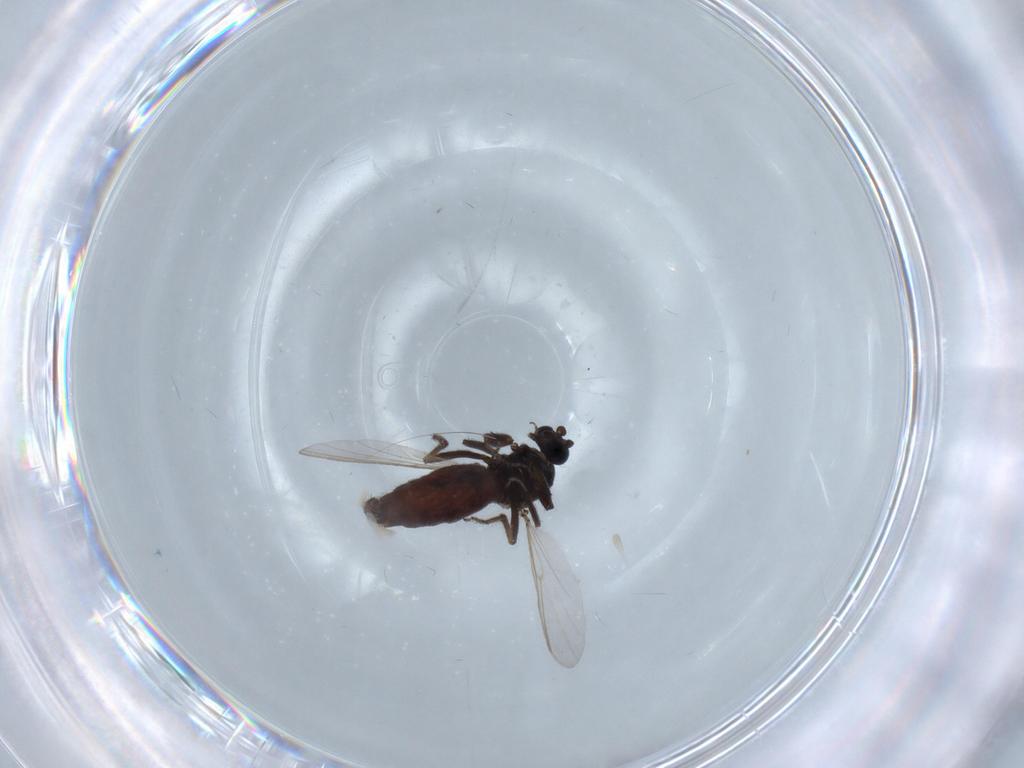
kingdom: Animalia
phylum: Arthropoda
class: Insecta
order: Diptera
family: Ceratopogonidae
